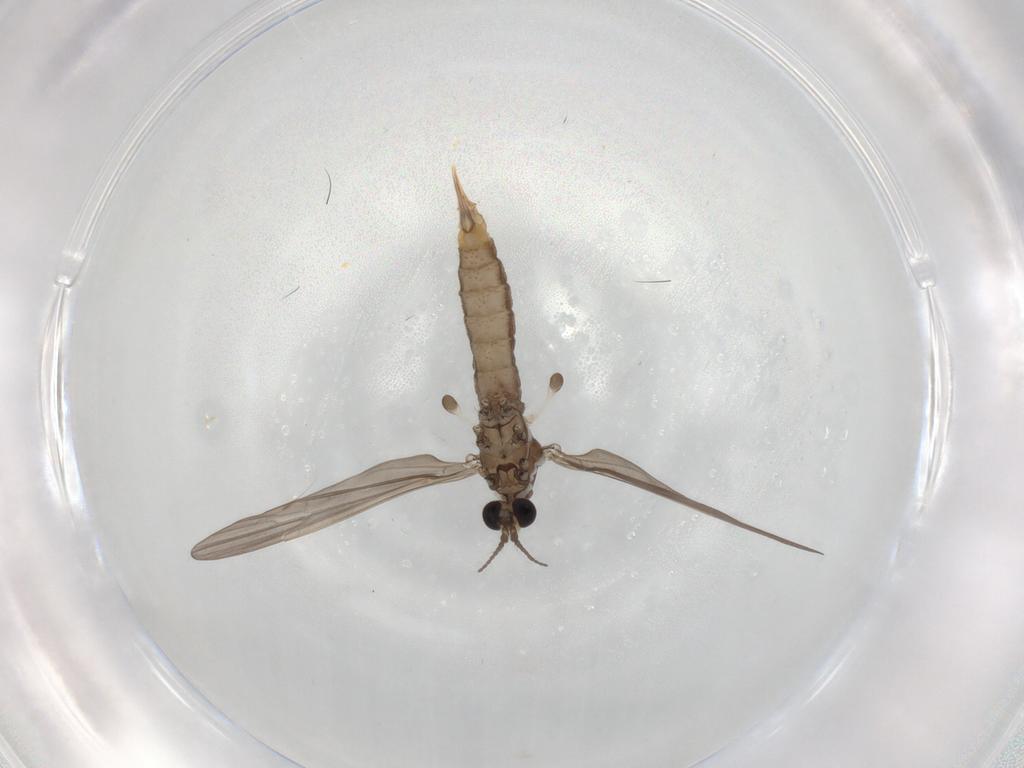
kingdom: Animalia
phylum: Arthropoda
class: Insecta
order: Diptera
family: Limoniidae
